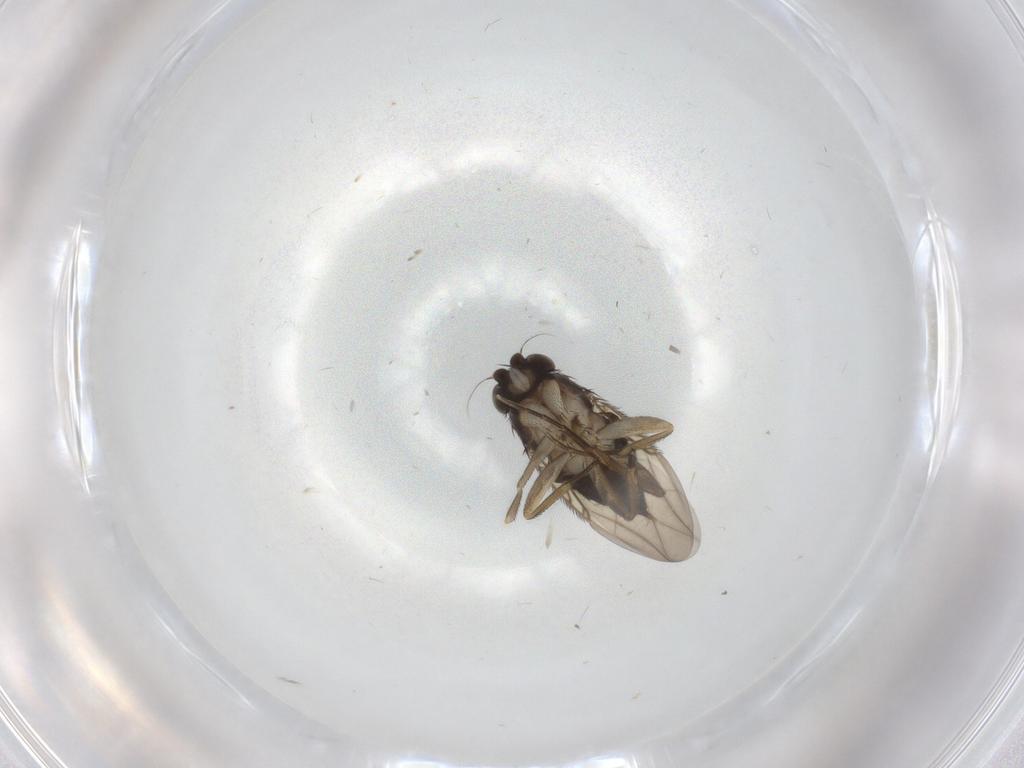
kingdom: Animalia
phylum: Arthropoda
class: Insecta
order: Diptera
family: Phoridae
